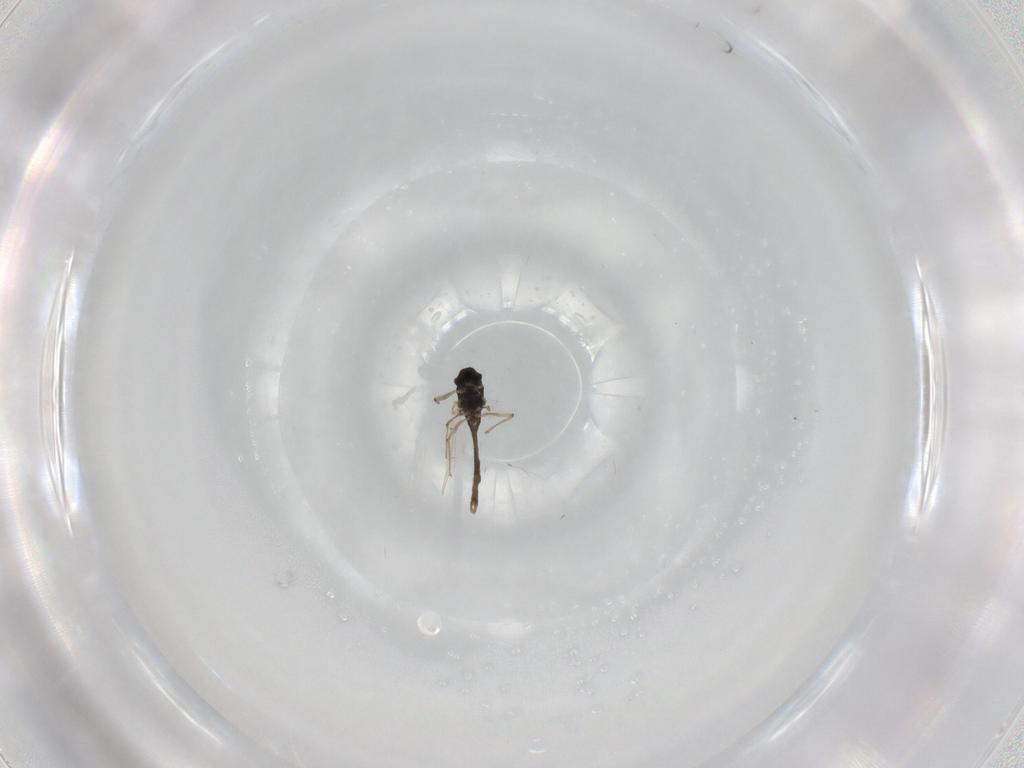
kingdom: Animalia
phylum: Arthropoda
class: Insecta
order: Diptera
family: Chironomidae
